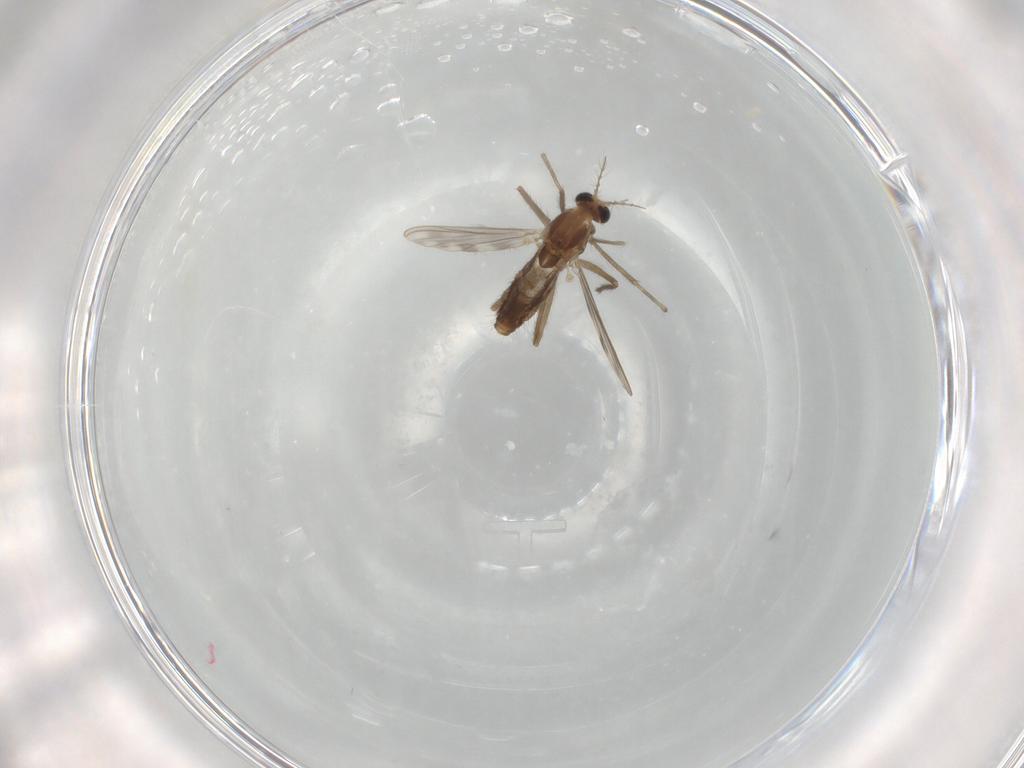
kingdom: Animalia
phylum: Arthropoda
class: Insecta
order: Diptera
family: Chironomidae
